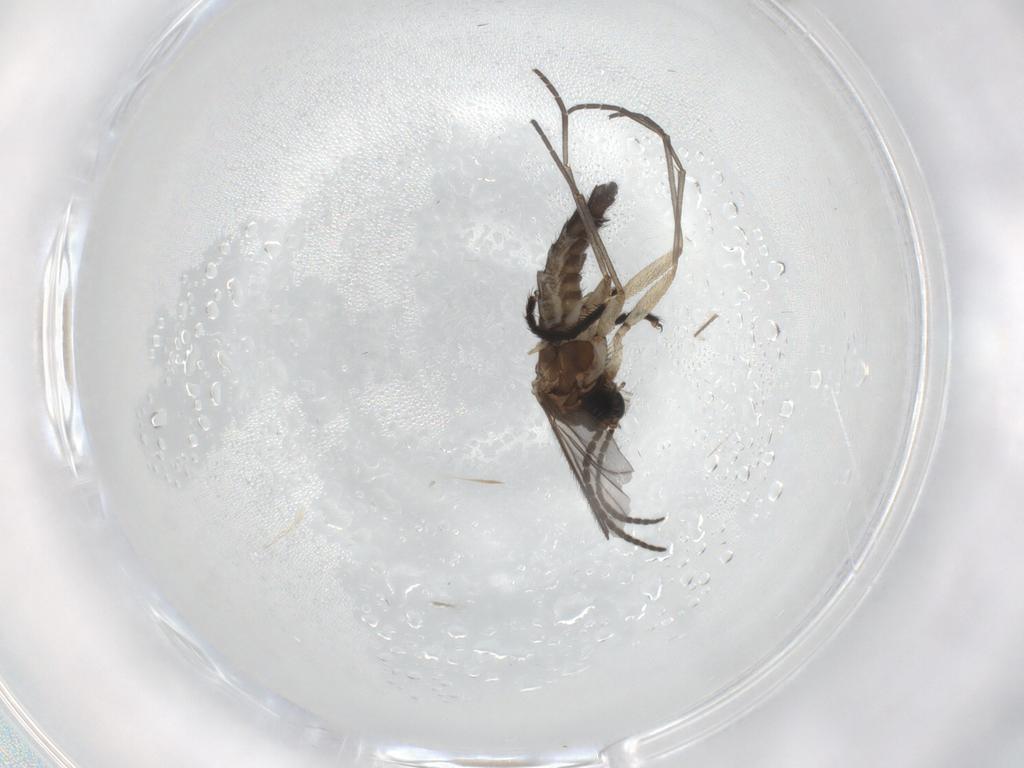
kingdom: Animalia
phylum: Arthropoda
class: Insecta
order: Diptera
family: Sciaridae
